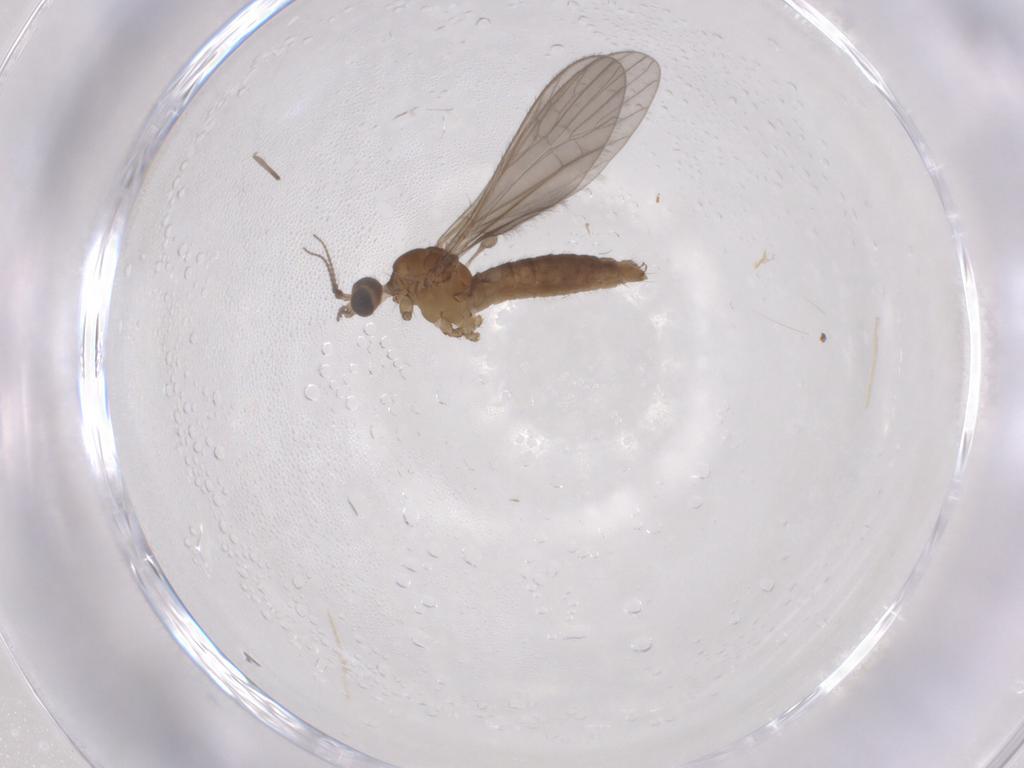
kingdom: Animalia
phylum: Arthropoda
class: Insecta
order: Diptera
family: Limoniidae
